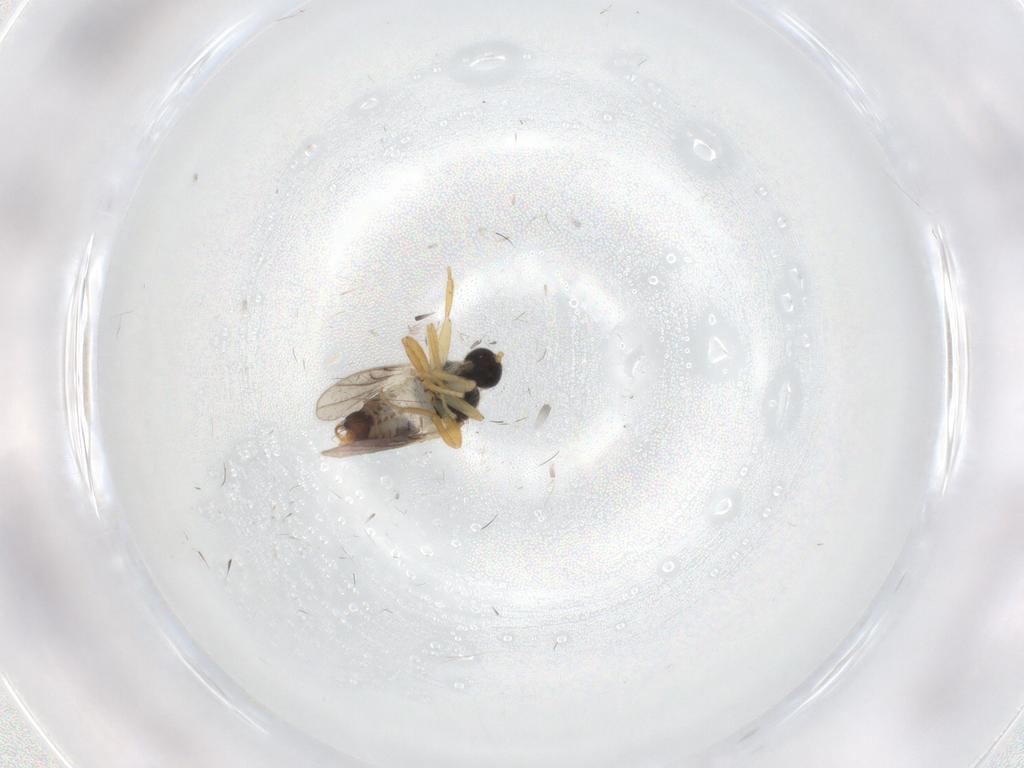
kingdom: Animalia
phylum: Arthropoda
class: Insecta
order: Diptera
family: Hybotidae
